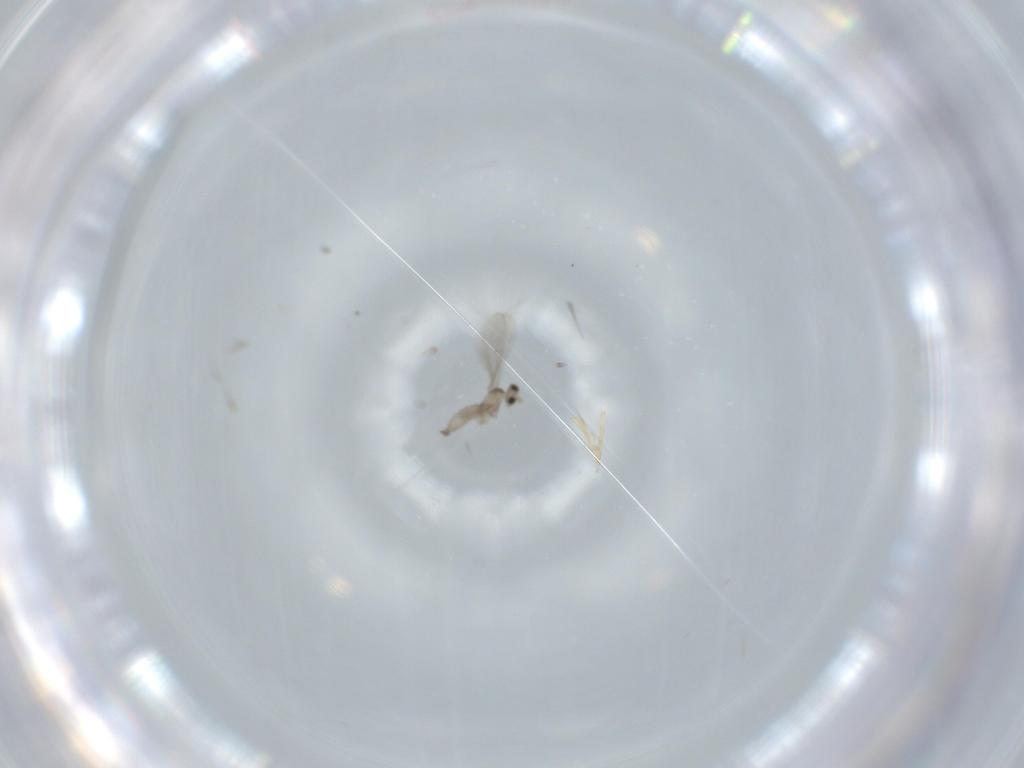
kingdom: Animalia
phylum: Arthropoda
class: Insecta
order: Diptera
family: Cecidomyiidae
